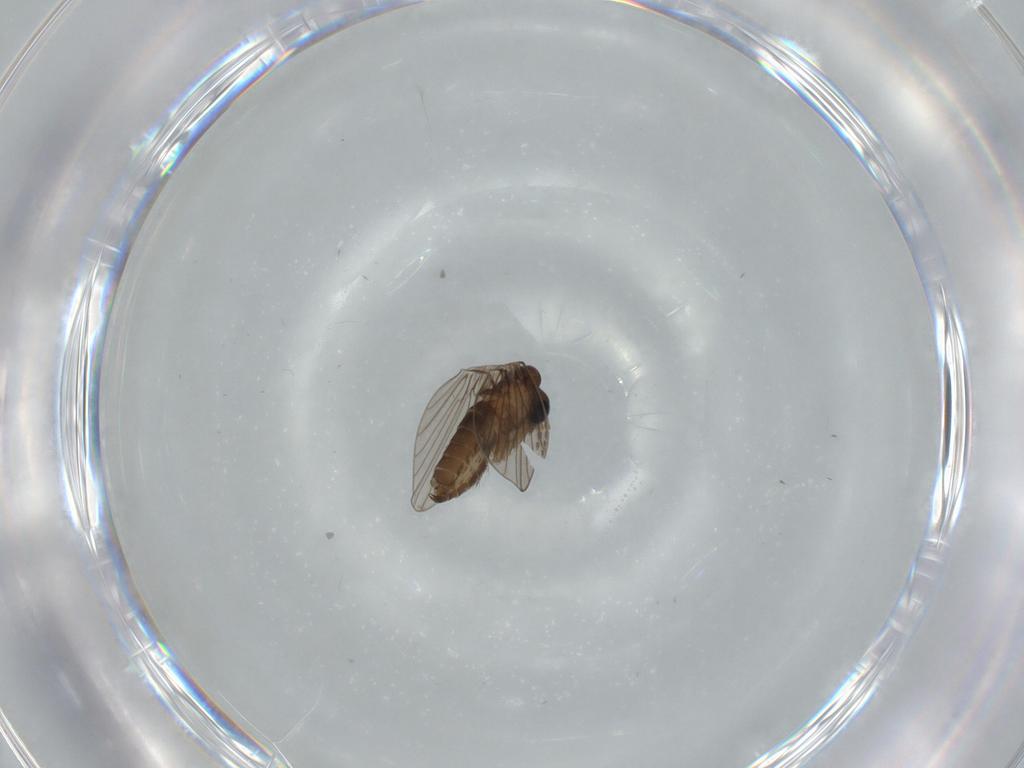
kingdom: Animalia
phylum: Arthropoda
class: Insecta
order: Diptera
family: Psychodidae
